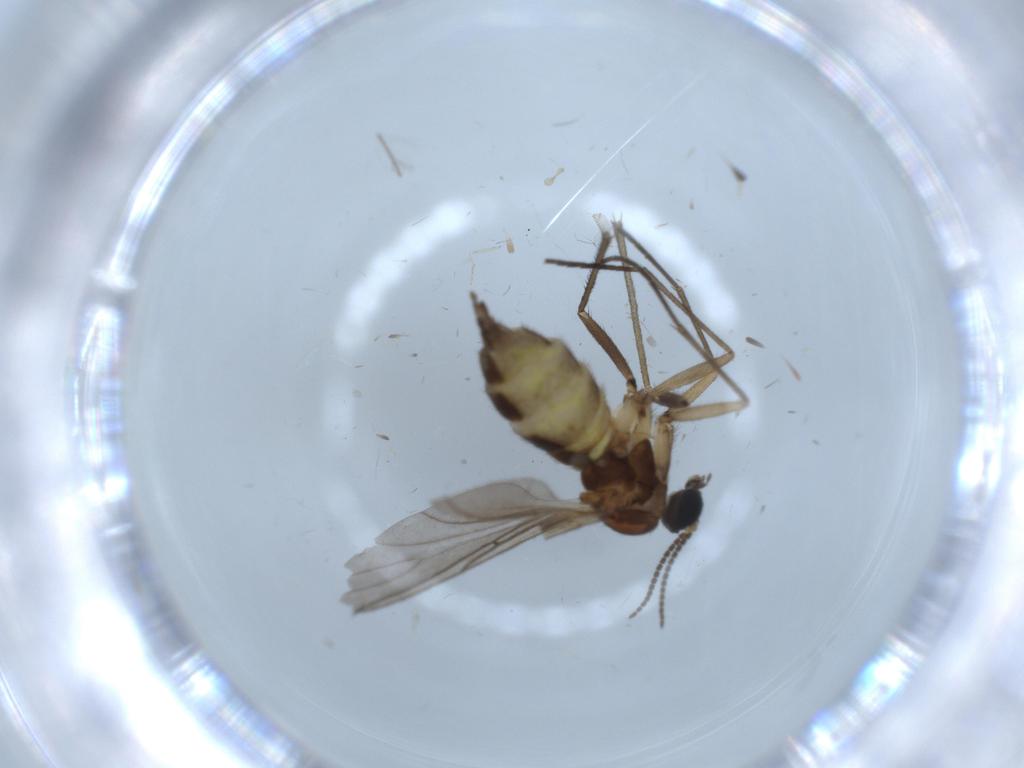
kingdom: Animalia
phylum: Arthropoda
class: Insecta
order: Diptera
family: Sciaridae
